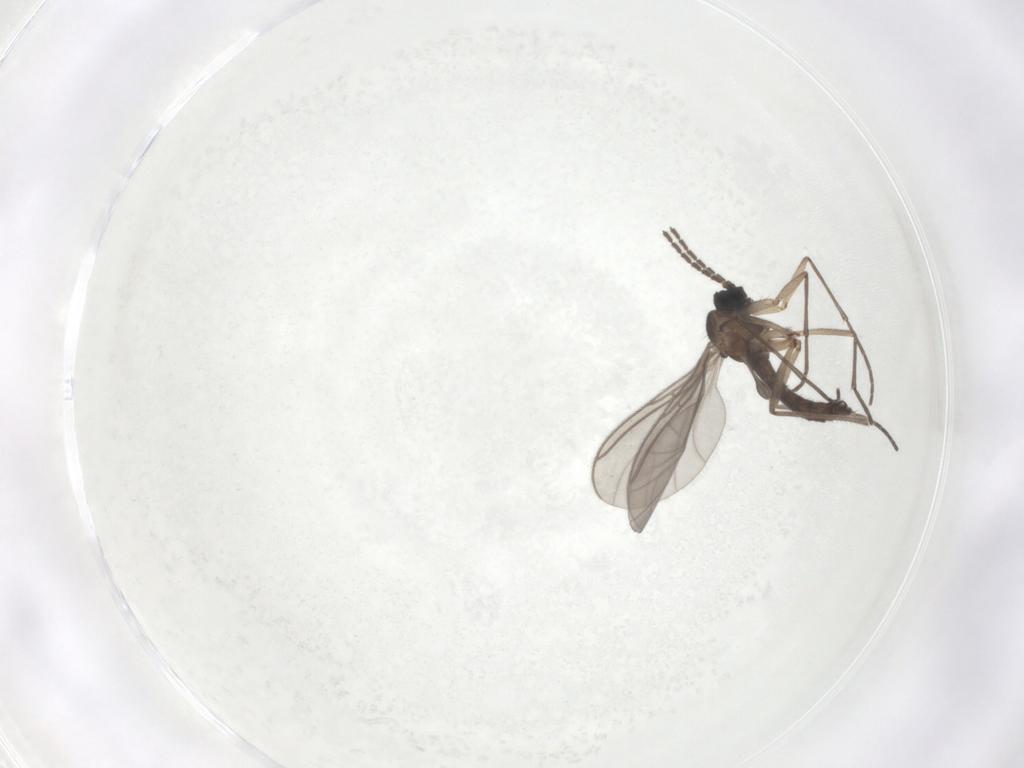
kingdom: Animalia
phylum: Arthropoda
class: Insecta
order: Diptera
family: Sciaridae
